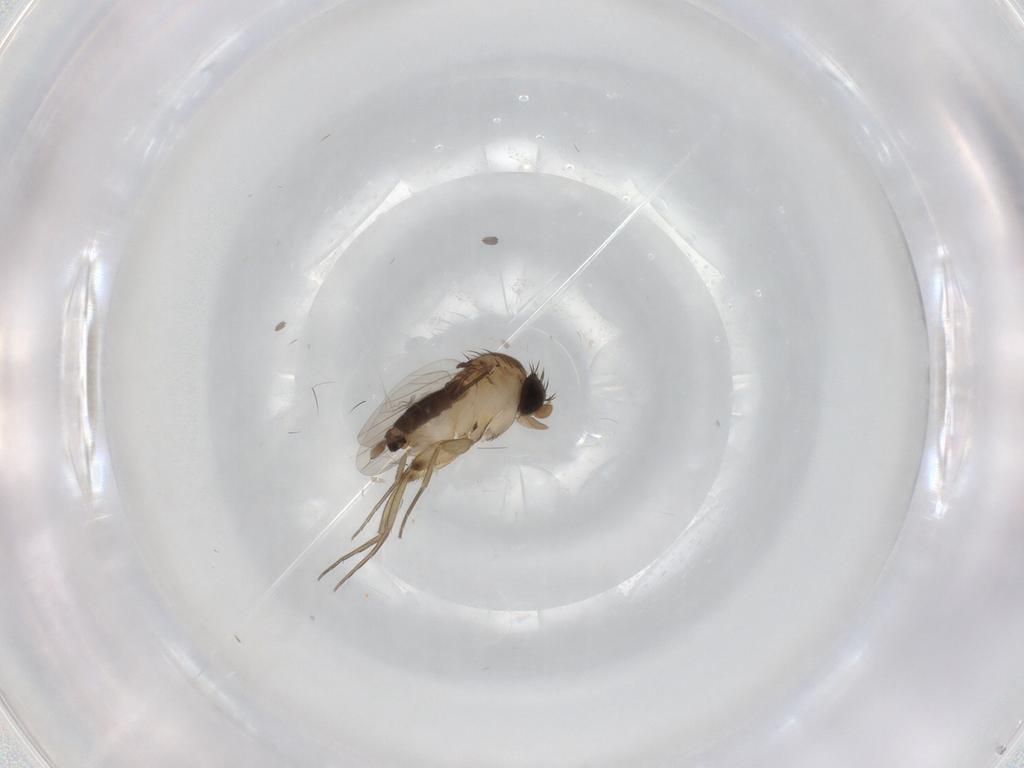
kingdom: Animalia
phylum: Arthropoda
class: Insecta
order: Diptera
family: Phoridae
